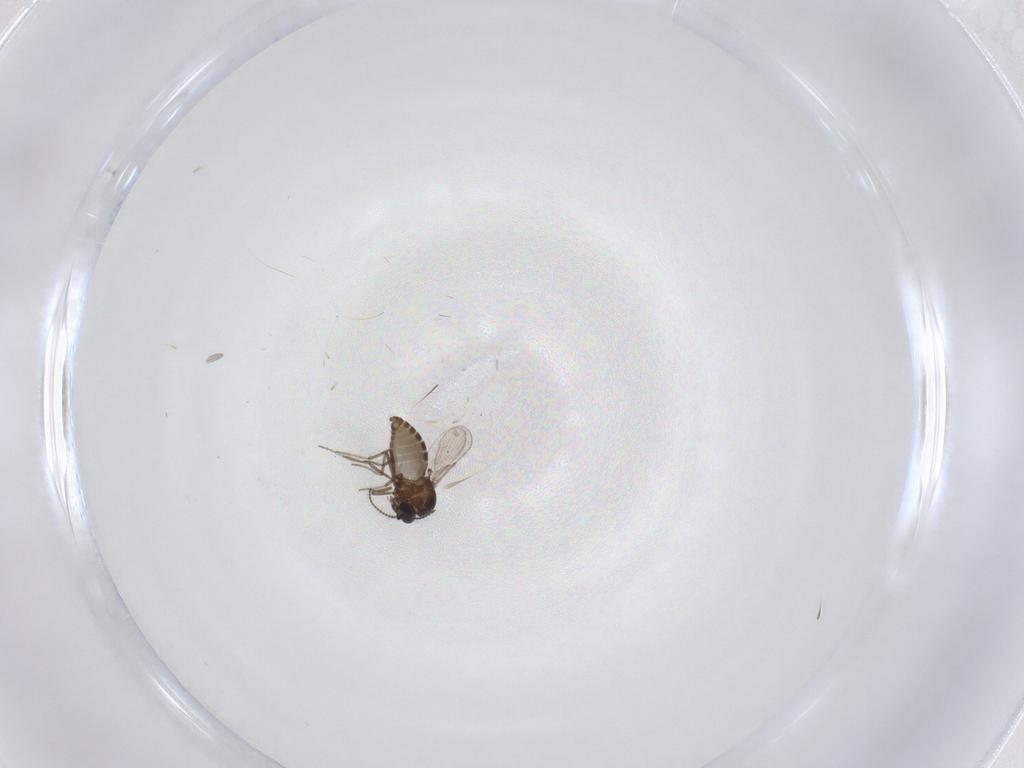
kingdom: Animalia
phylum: Arthropoda
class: Insecta
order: Diptera
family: Ceratopogonidae
